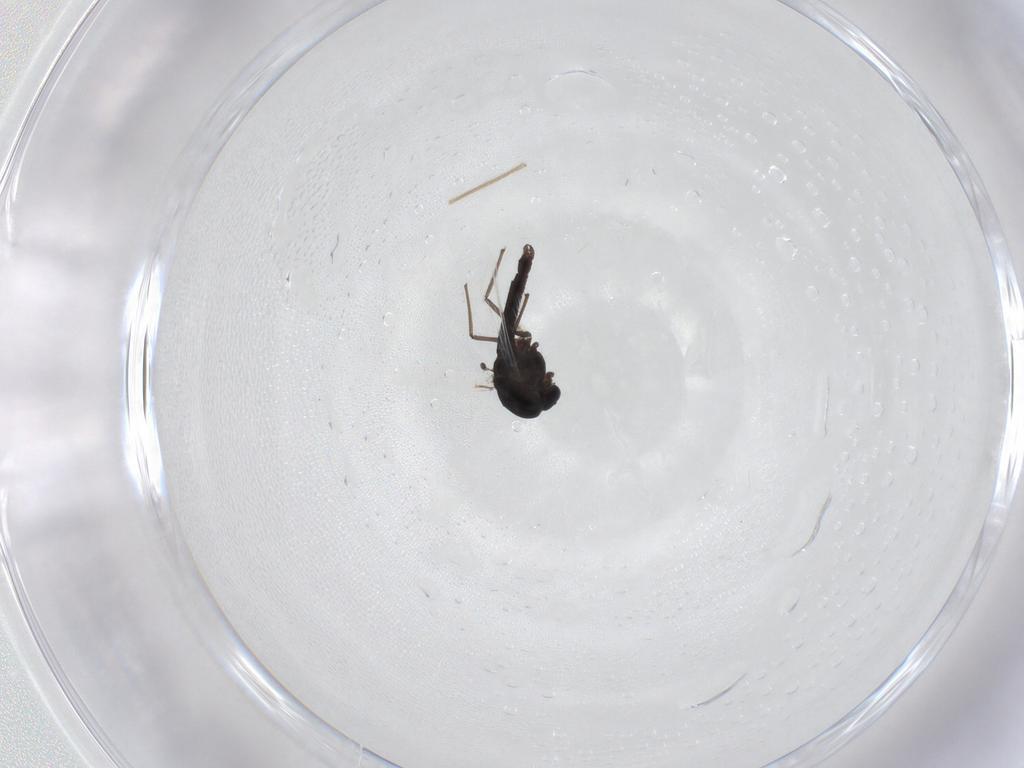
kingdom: Animalia
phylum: Arthropoda
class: Insecta
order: Diptera
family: Chironomidae
